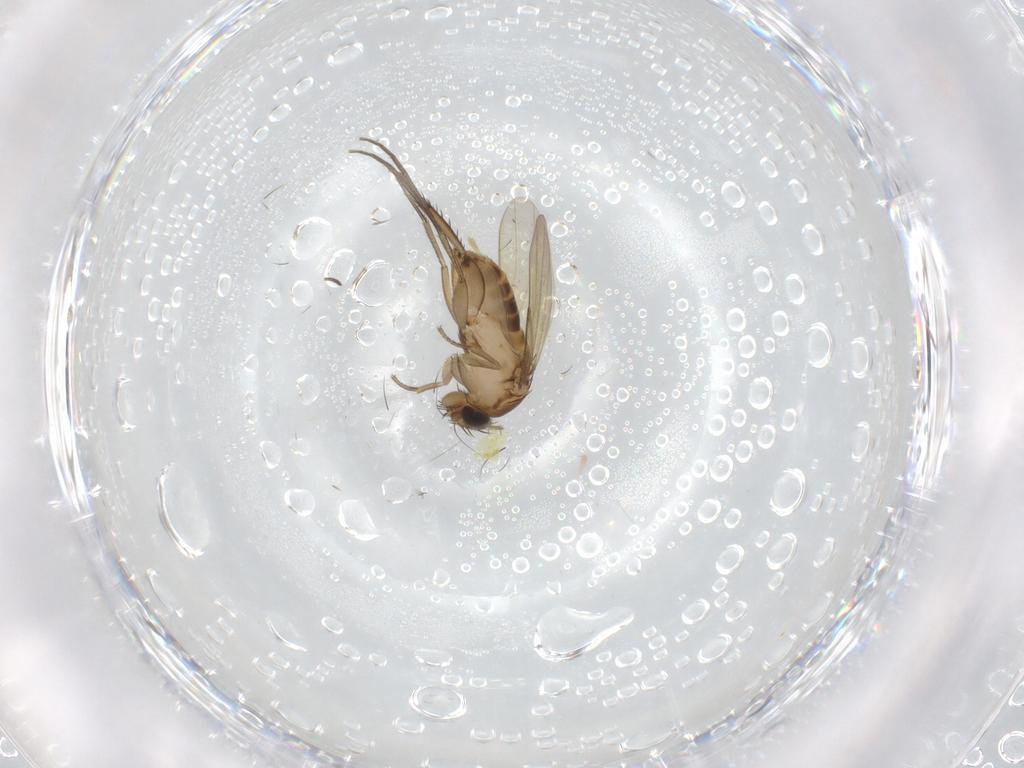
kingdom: Animalia
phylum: Arthropoda
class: Insecta
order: Diptera
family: Phoridae
